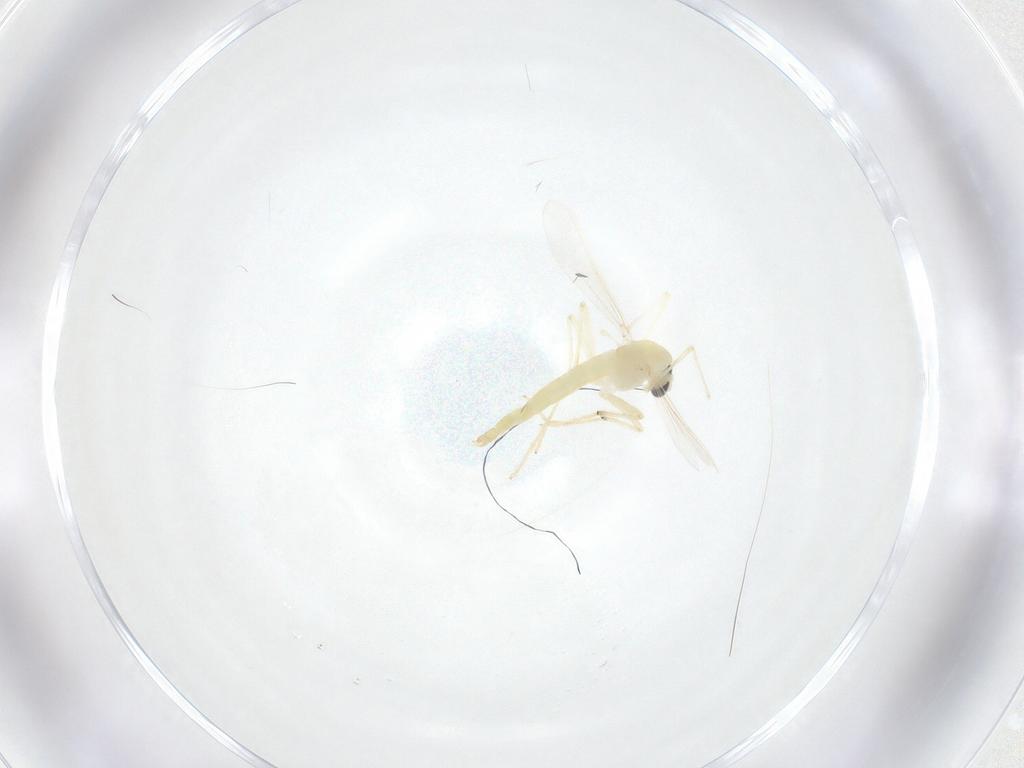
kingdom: Animalia
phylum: Arthropoda
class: Insecta
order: Diptera
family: Chironomidae
